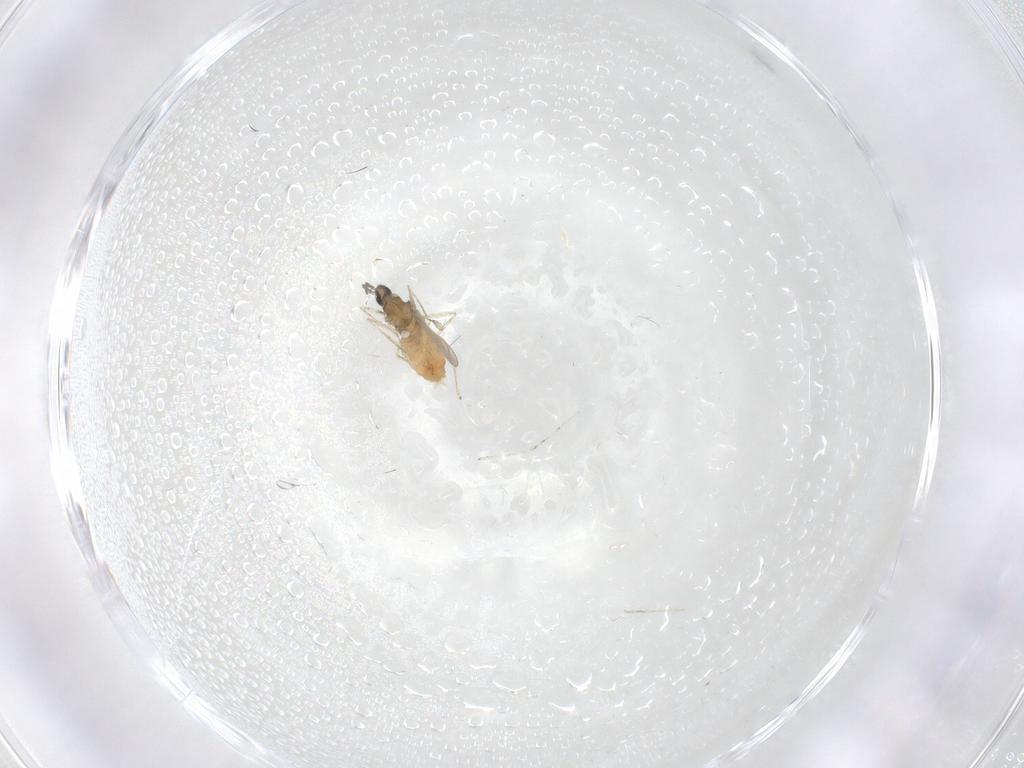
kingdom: Animalia
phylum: Arthropoda
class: Insecta
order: Diptera
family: Cecidomyiidae
